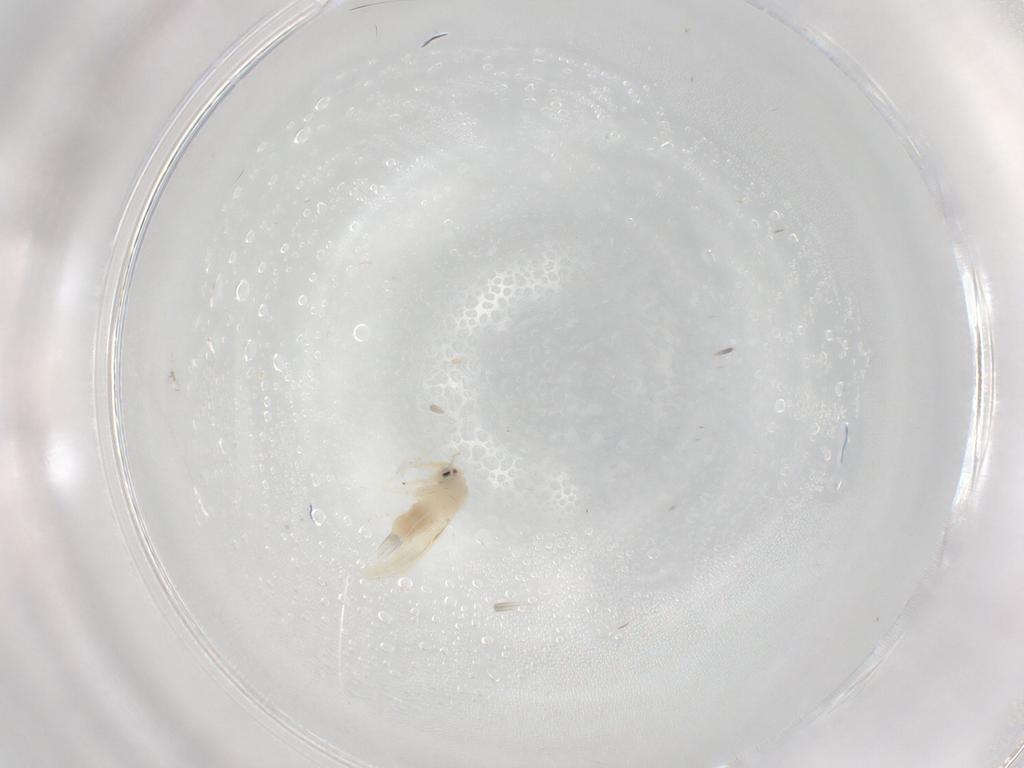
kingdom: Animalia
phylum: Arthropoda
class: Insecta
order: Hemiptera
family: Aleyrodidae
